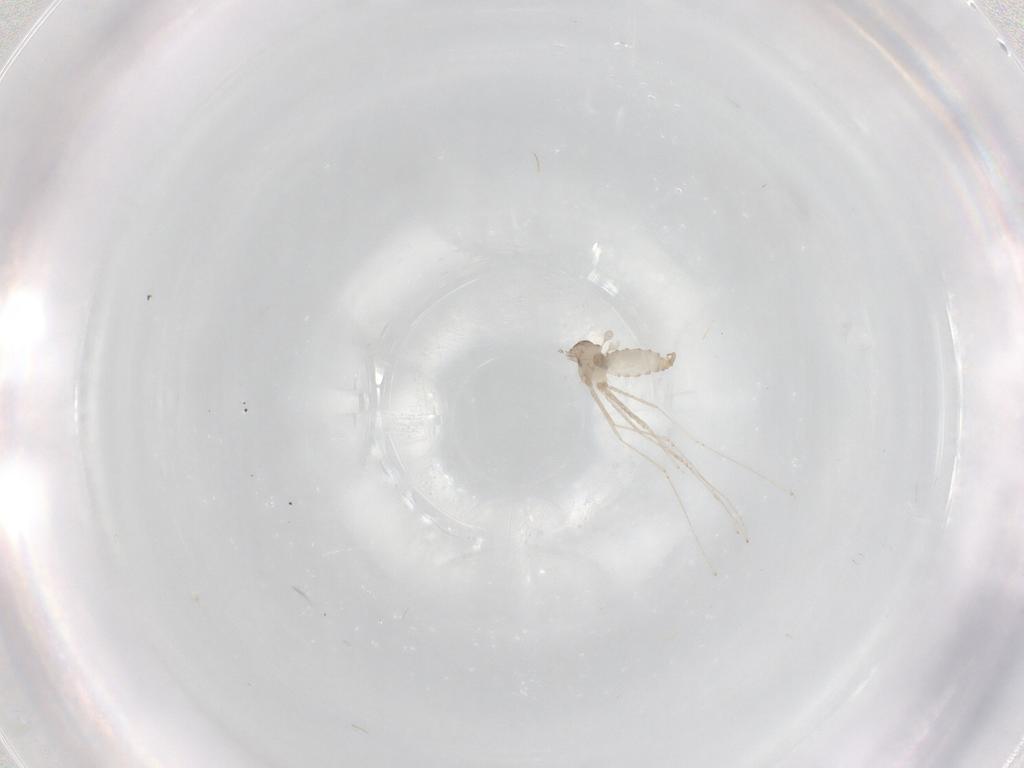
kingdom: Animalia
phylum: Arthropoda
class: Insecta
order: Diptera
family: Cecidomyiidae
